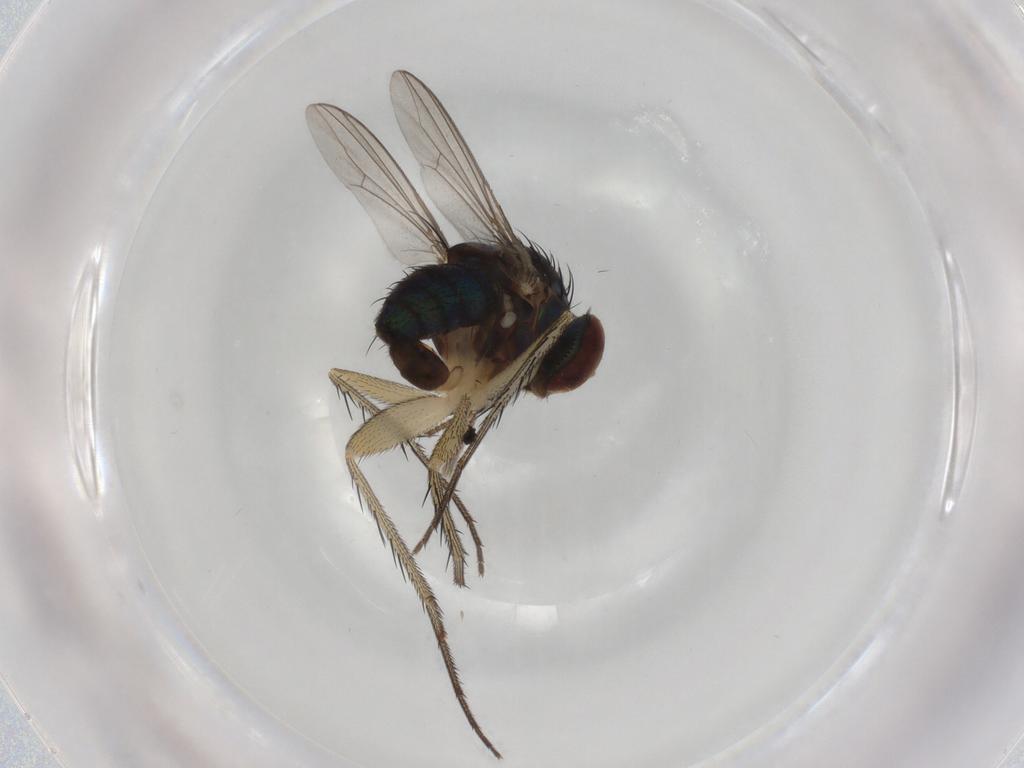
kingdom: Animalia
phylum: Arthropoda
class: Insecta
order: Diptera
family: Dolichopodidae
